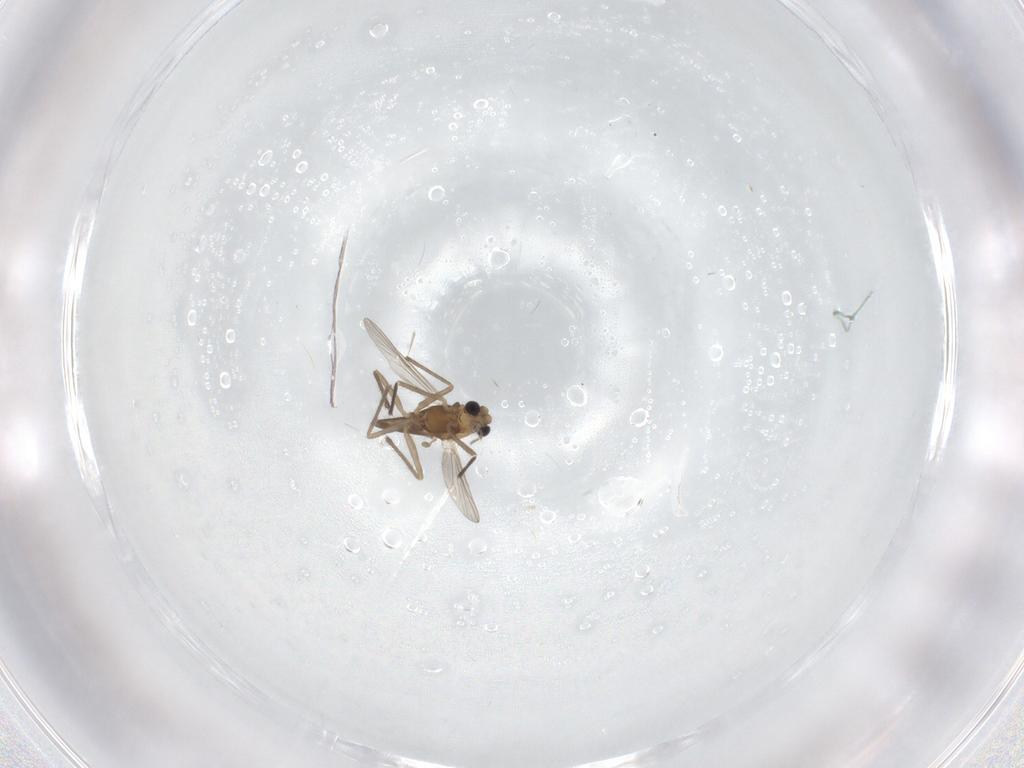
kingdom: Animalia
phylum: Arthropoda
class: Insecta
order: Diptera
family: Chironomidae
